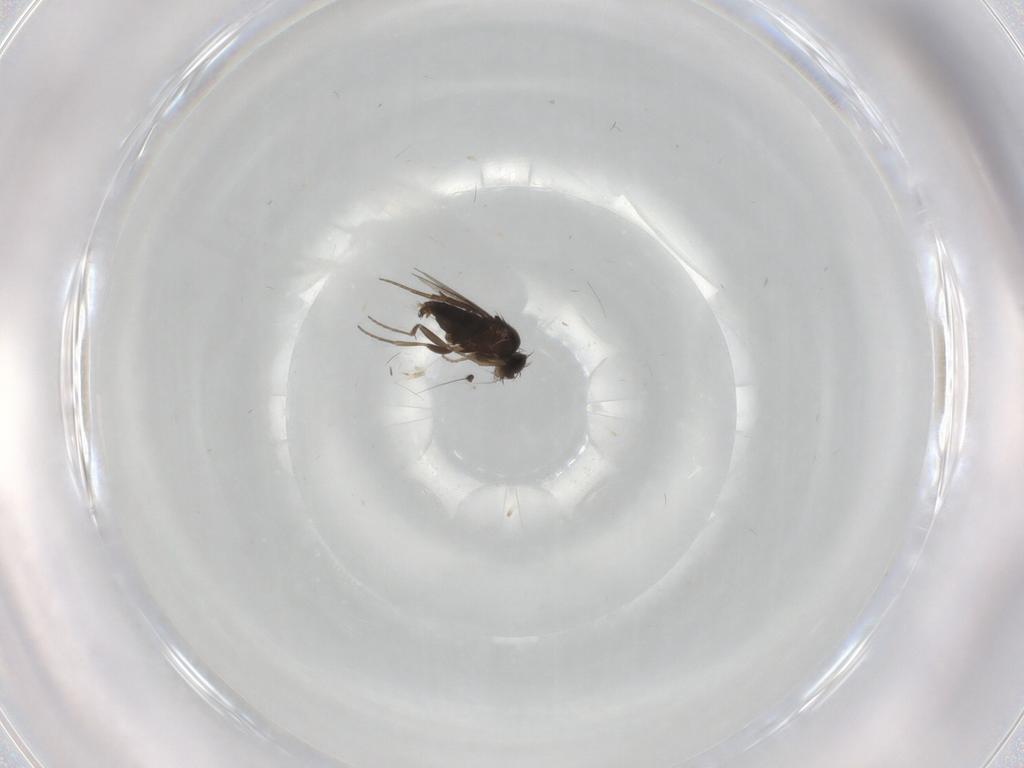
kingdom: Animalia
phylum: Arthropoda
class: Insecta
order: Diptera
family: Phoridae
